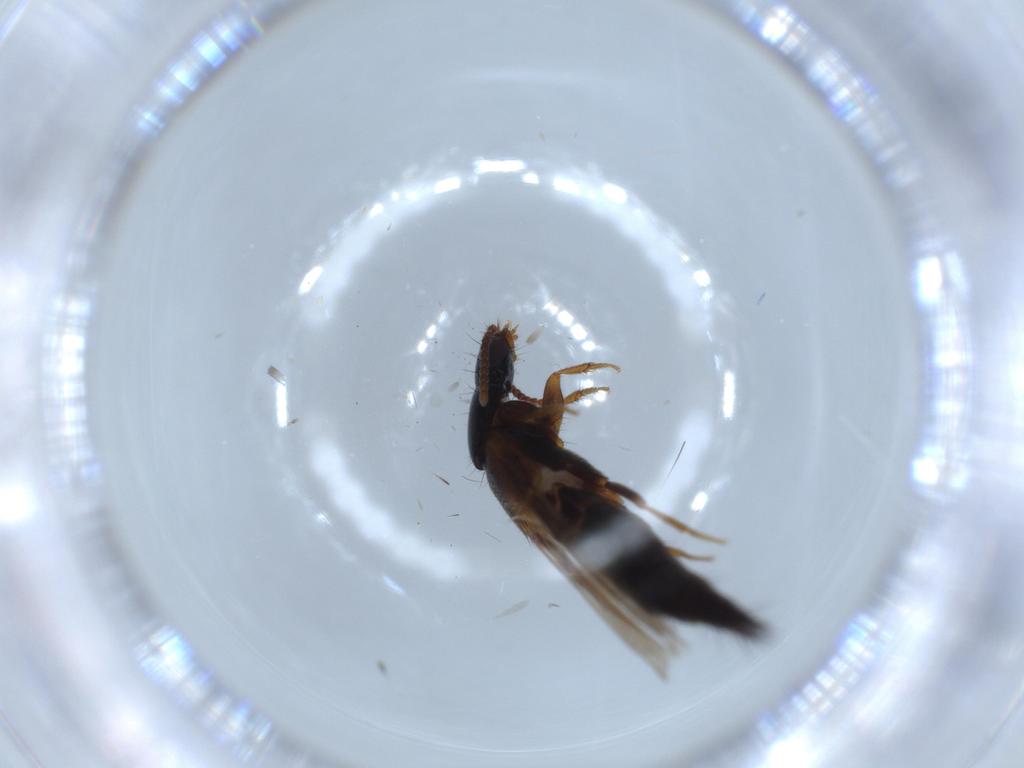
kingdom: Animalia
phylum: Arthropoda
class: Insecta
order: Coleoptera
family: Staphylinidae
